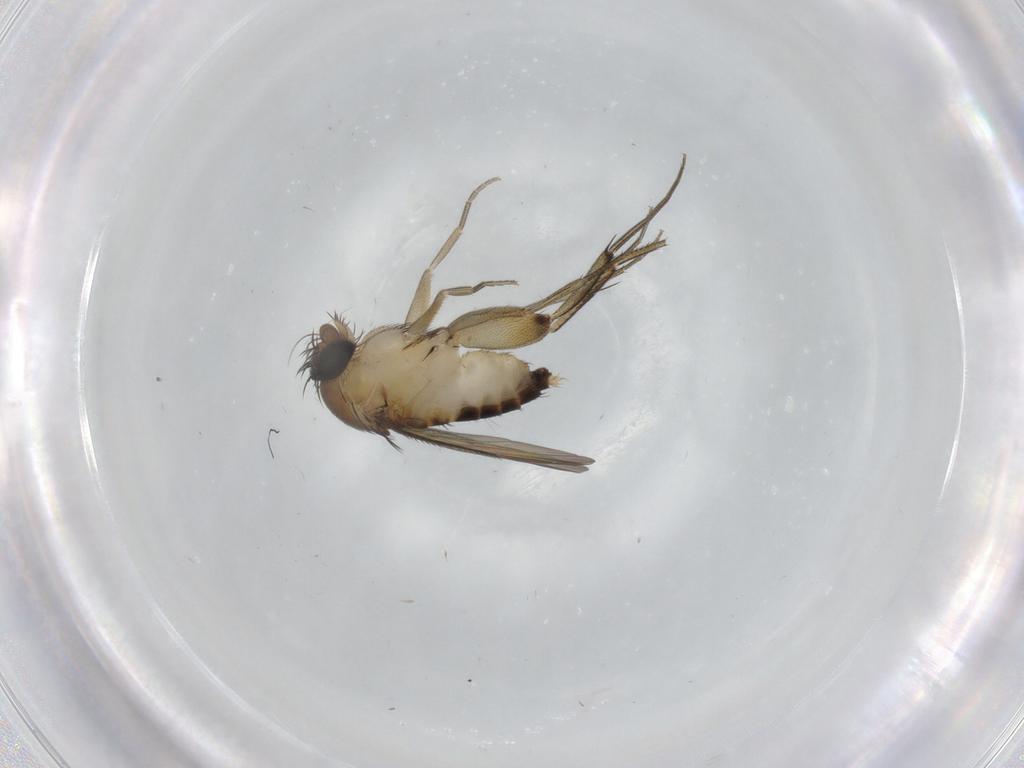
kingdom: Animalia
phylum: Arthropoda
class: Insecta
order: Diptera
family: Phoridae
